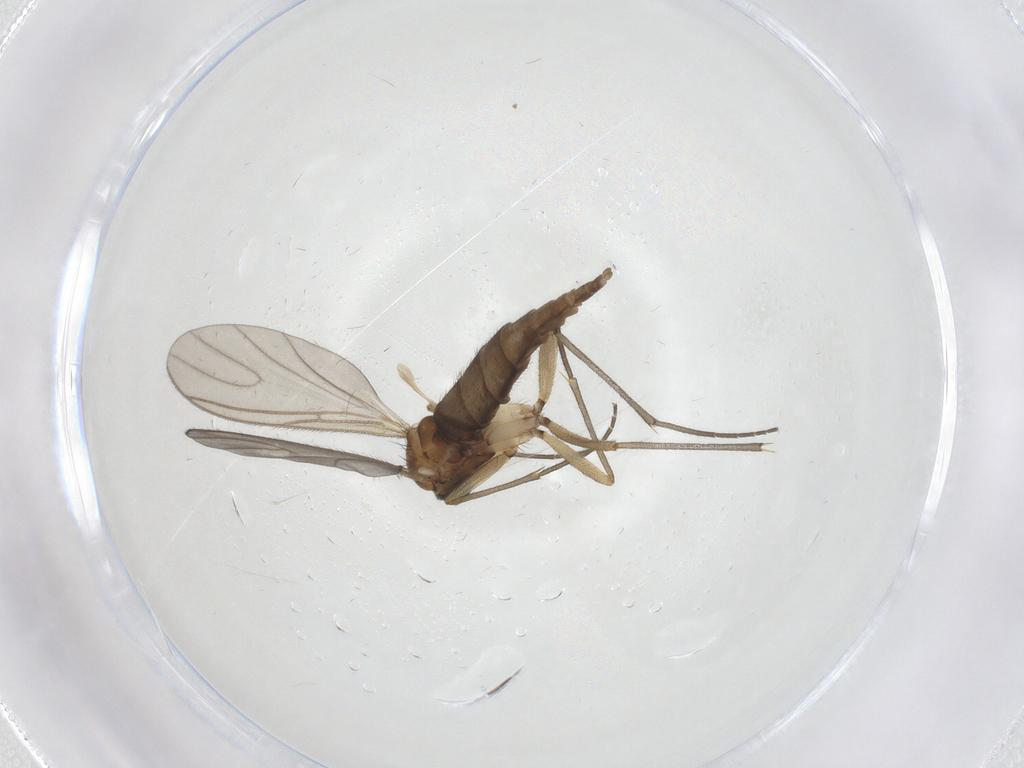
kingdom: Animalia
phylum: Arthropoda
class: Insecta
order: Diptera
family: Sciaridae
